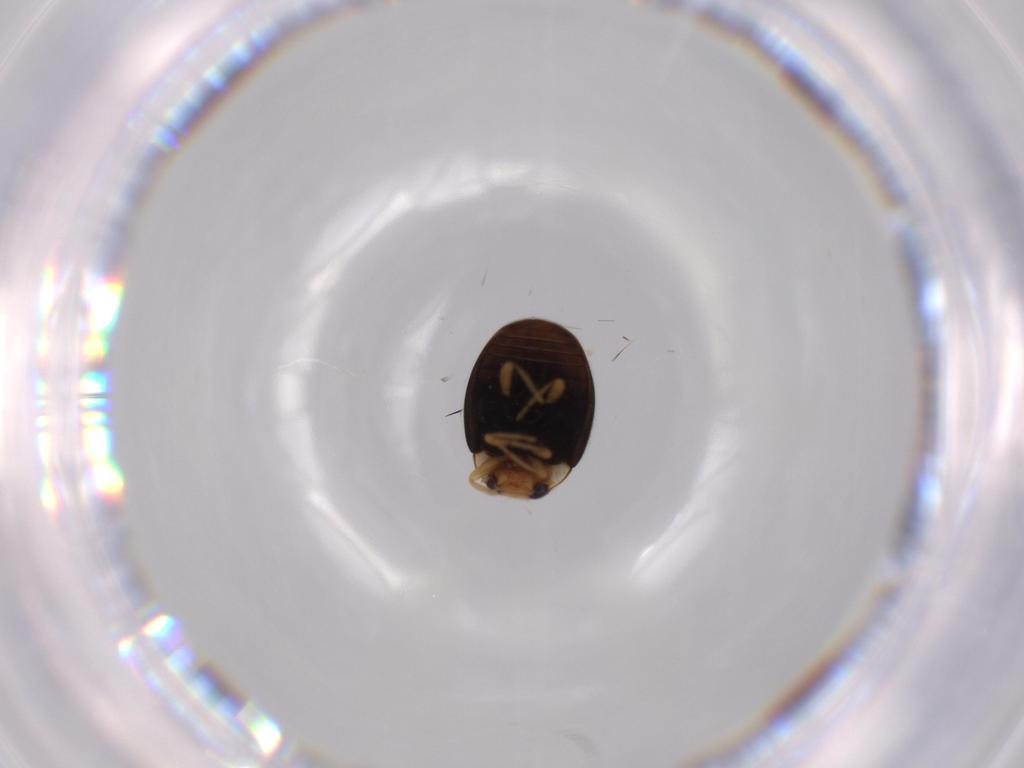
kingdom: Animalia
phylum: Arthropoda
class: Insecta
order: Coleoptera
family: Coccinellidae
